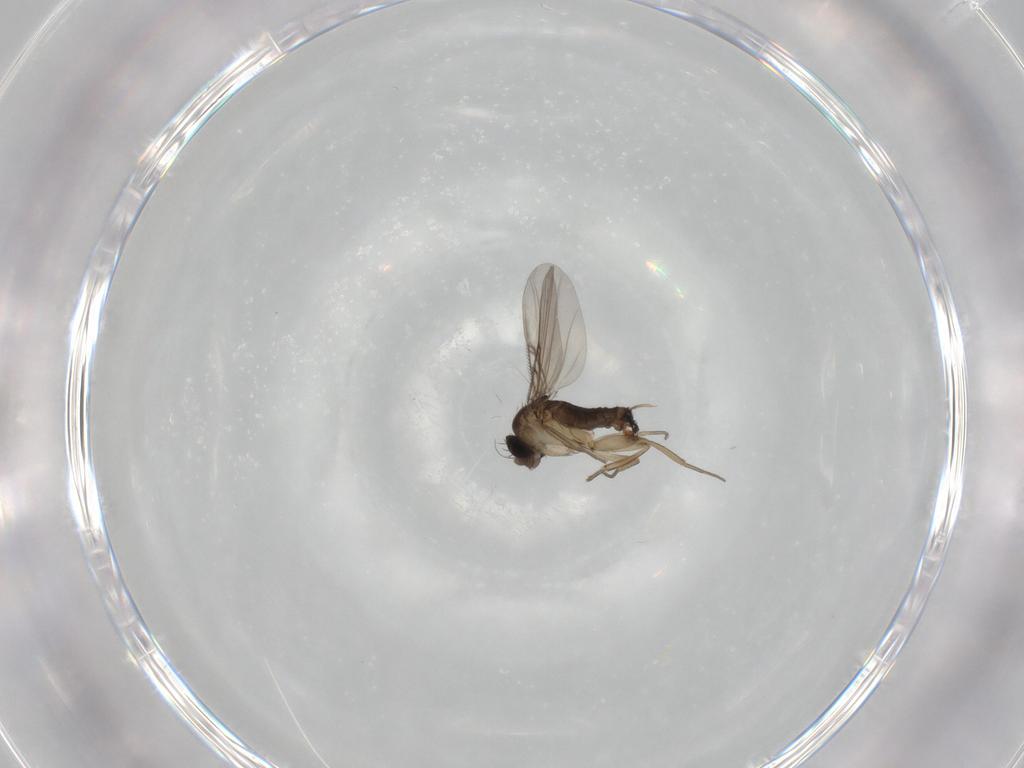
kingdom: Animalia
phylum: Arthropoda
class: Insecta
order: Diptera
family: Phoridae
